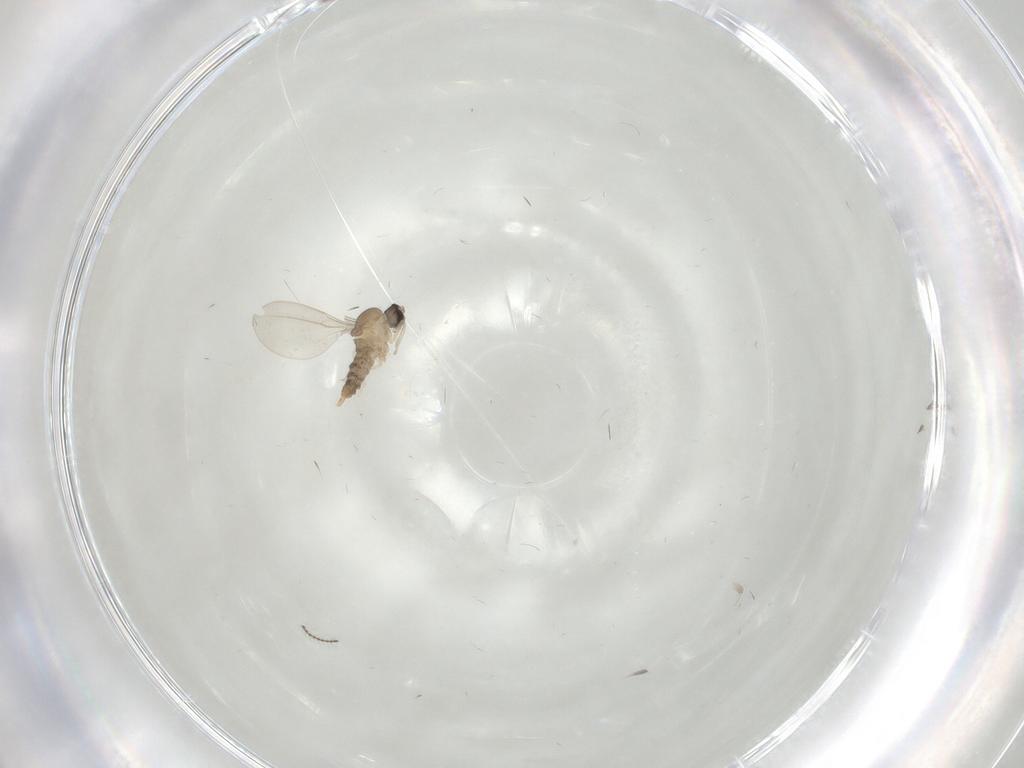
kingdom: Animalia
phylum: Arthropoda
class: Insecta
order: Diptera
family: Cecidomyiidae
